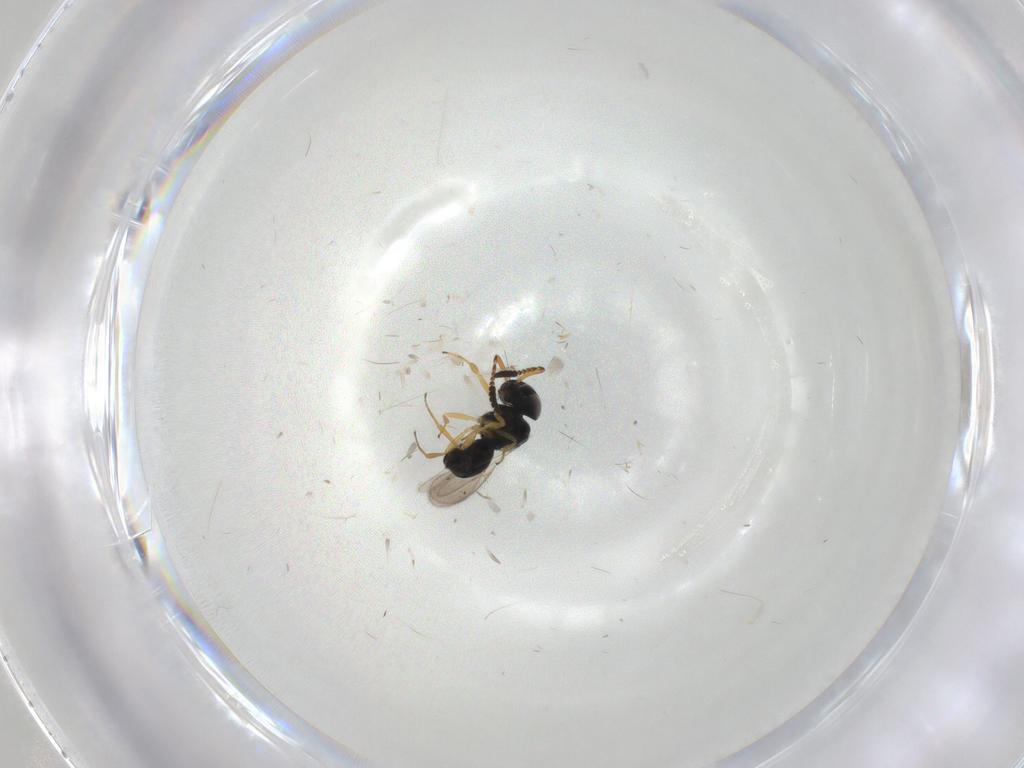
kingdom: Animalia
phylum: Arthropoda
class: Insecta
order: Hymenoptera
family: Scelionidae
